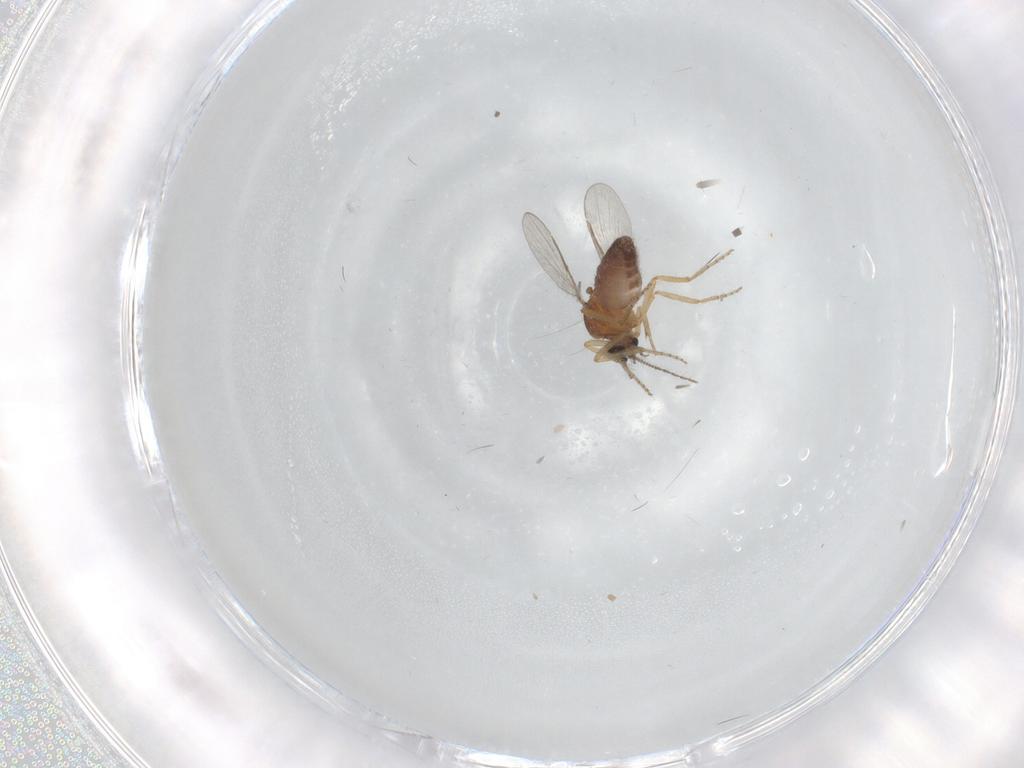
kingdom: Animalia
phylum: Arthropoda
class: Insecta
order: Diptera
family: Ceratopogonidae
